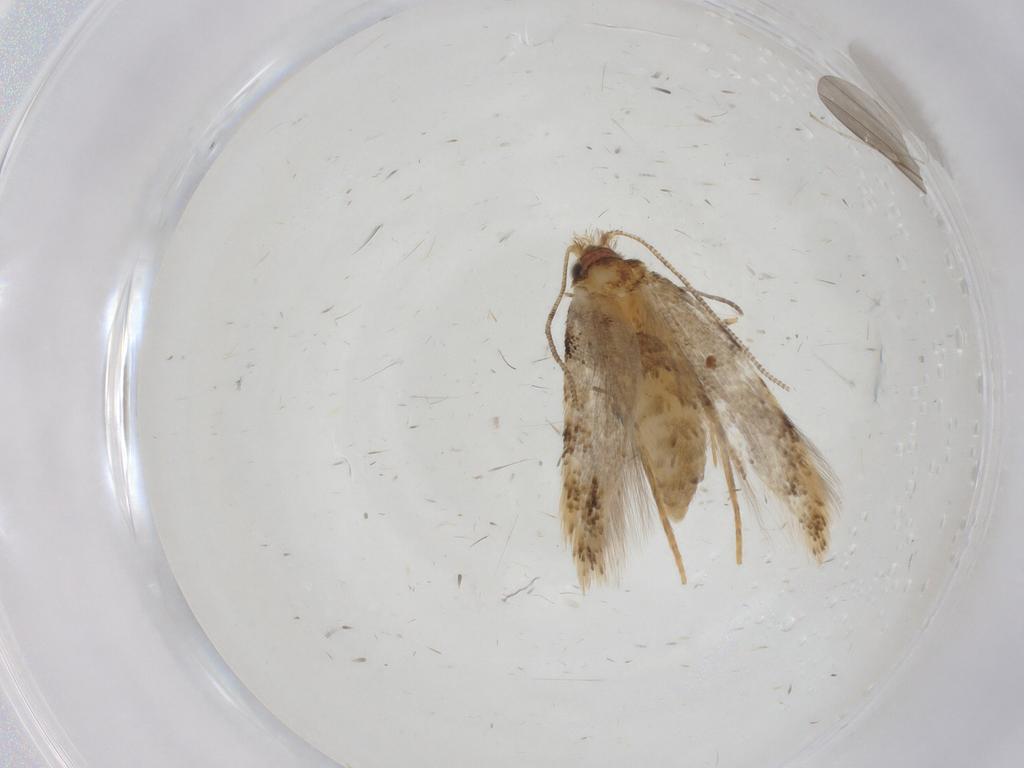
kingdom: Animalia
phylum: Arthropoda
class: Insecta
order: Lepidoptera
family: Tineidae
